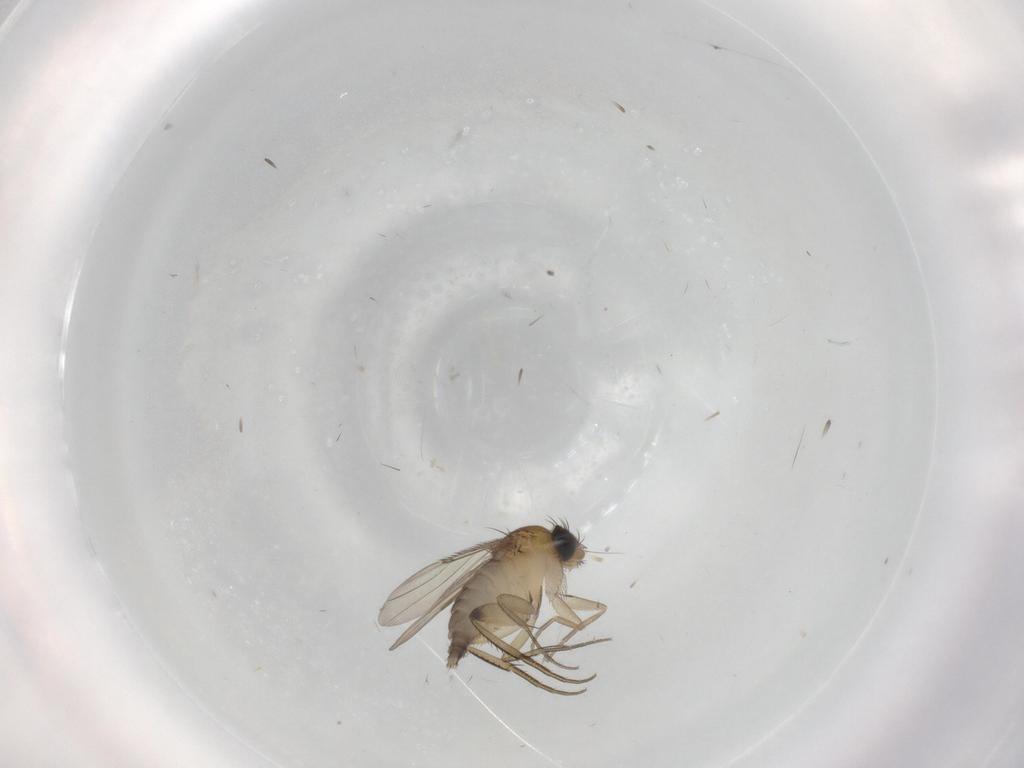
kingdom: Animalia
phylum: Arthropoda
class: Insecta
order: Diptera
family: Phoridae
